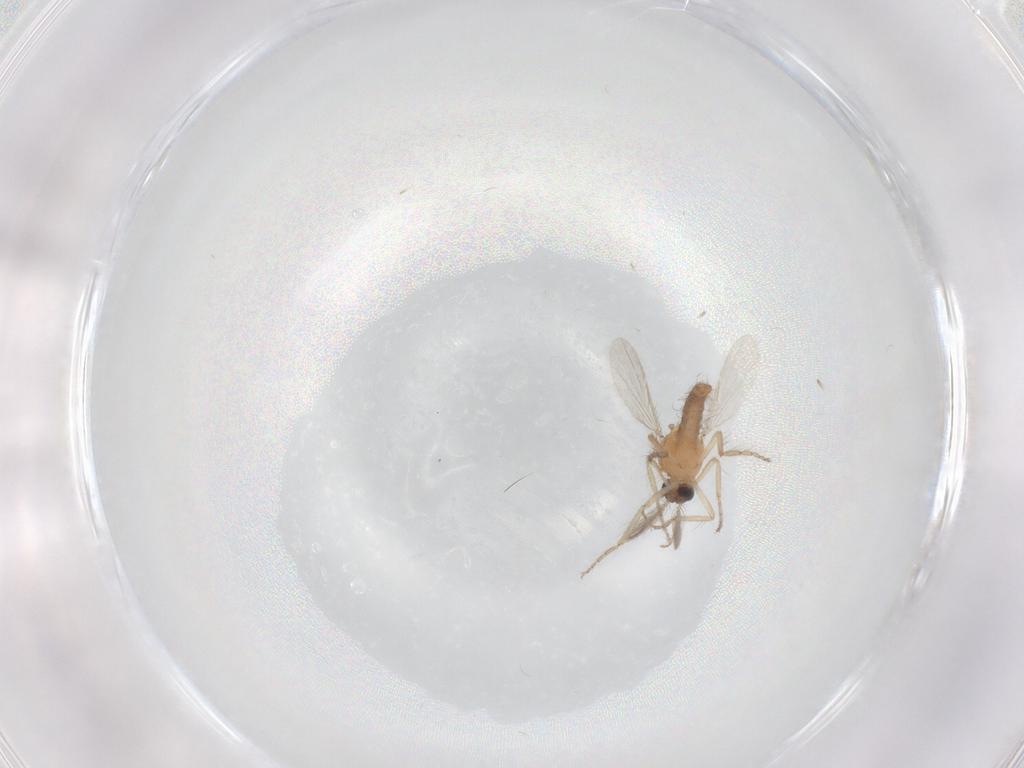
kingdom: Animalia
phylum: Arthropoda
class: Insecta
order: Diptera
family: Ceratopogonidae
